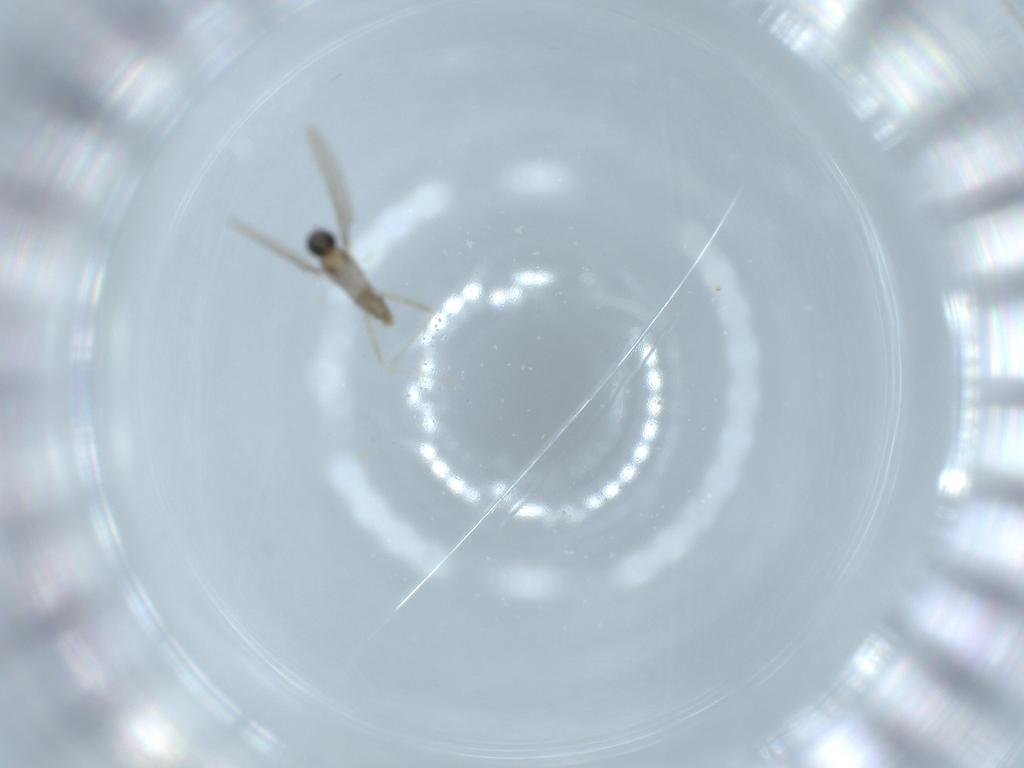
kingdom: Animalia
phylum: Arthropoda
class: Insecta
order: Diptera
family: Cecidomyiidae
